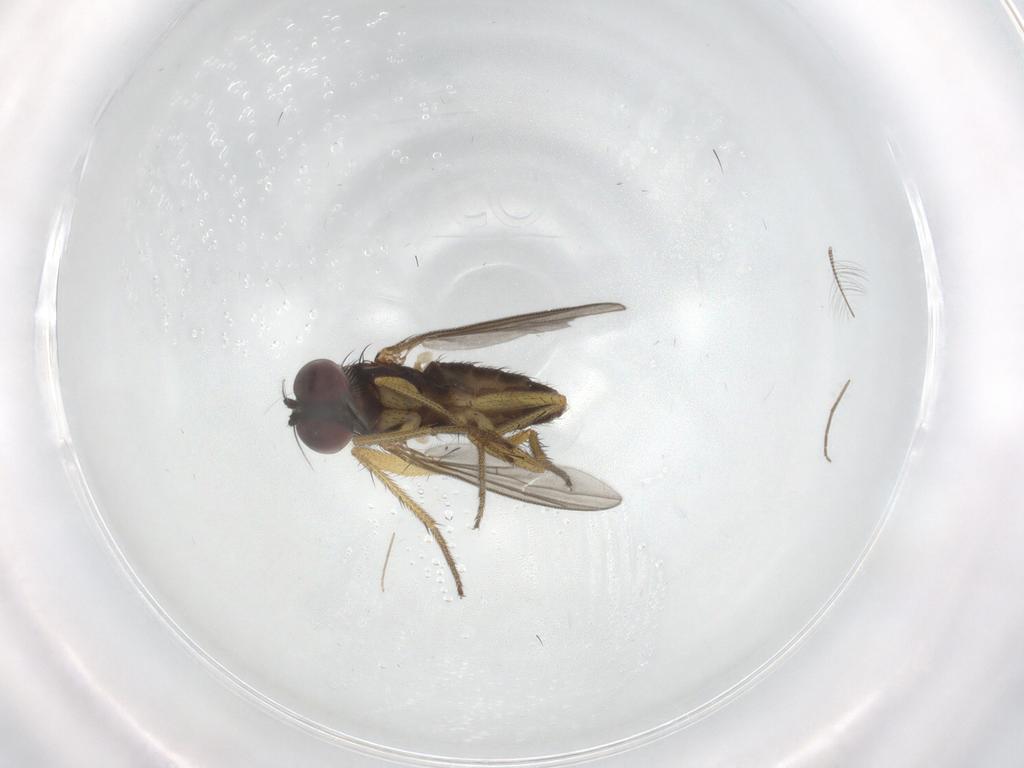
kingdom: Animalia
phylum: Arthropoda
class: Insecta
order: Diptera
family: Chironomidae
